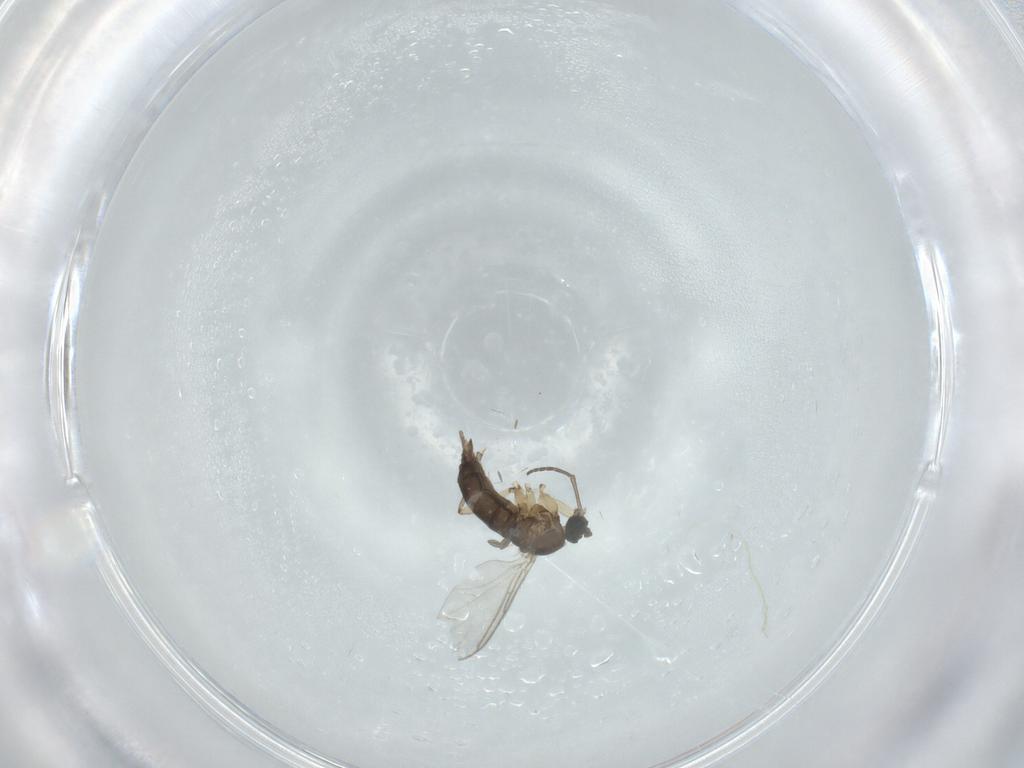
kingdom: Animalia
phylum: Arthropoda
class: Insecta
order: Diptera
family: Sciaridae
